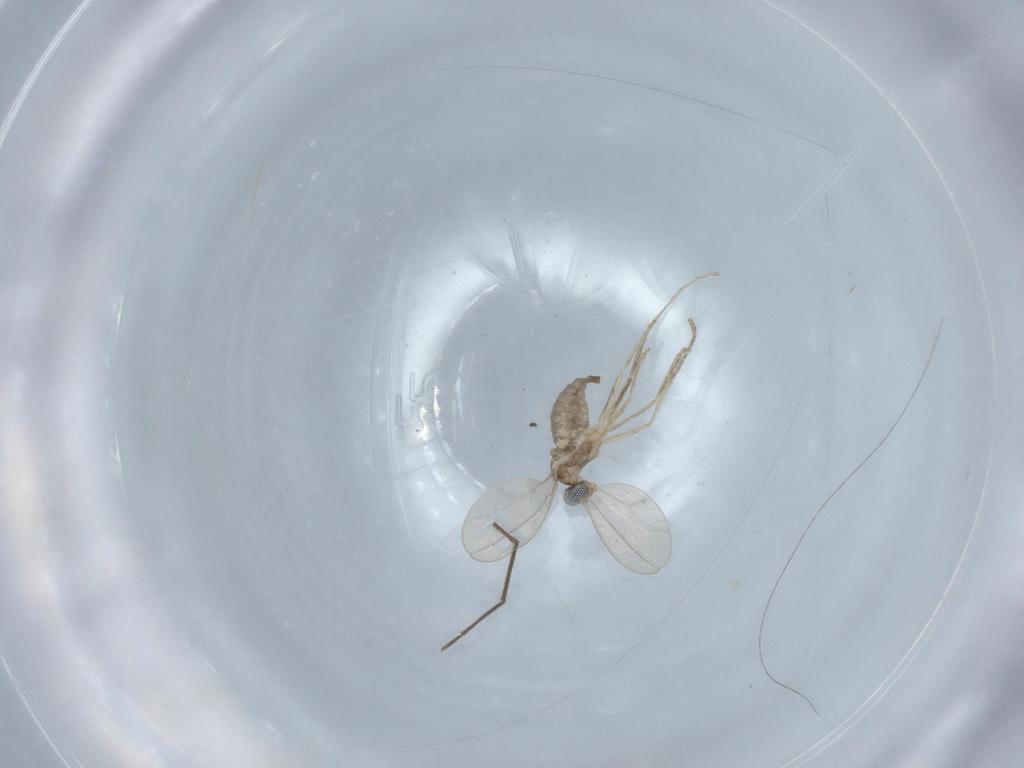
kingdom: Animalia
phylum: Arthropoda
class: Insecta
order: Diptera
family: Cecidomyiidae
